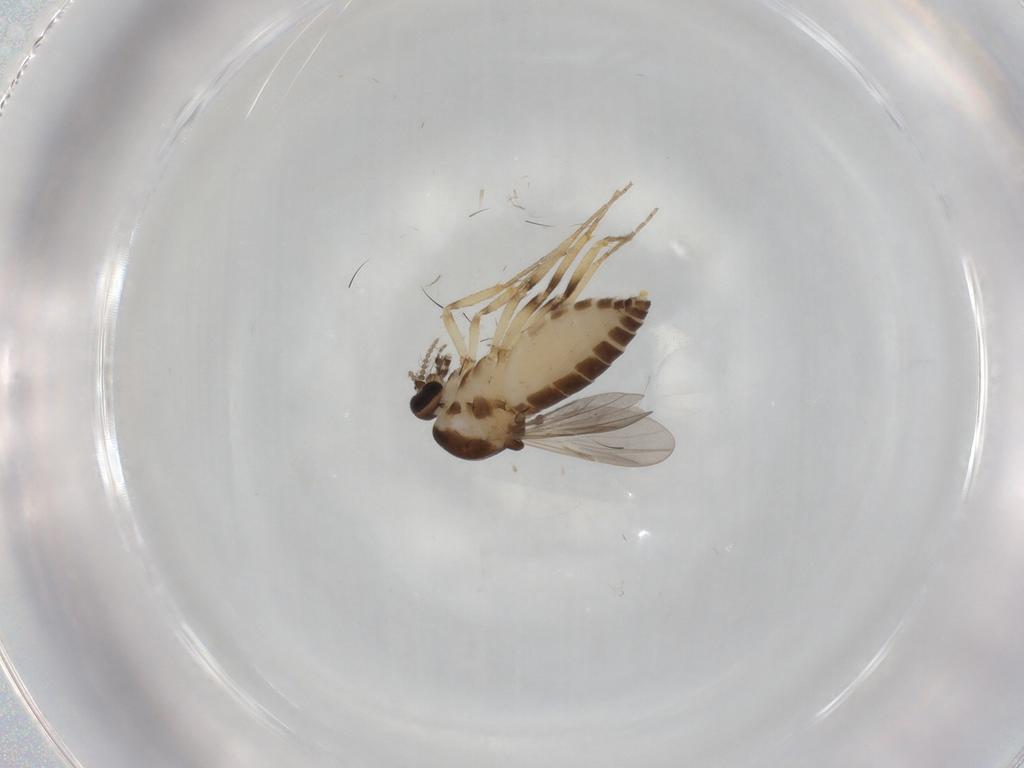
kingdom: Animalia
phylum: Arthropoda
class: Insecta
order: Diptera
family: Ceratopogonidae
